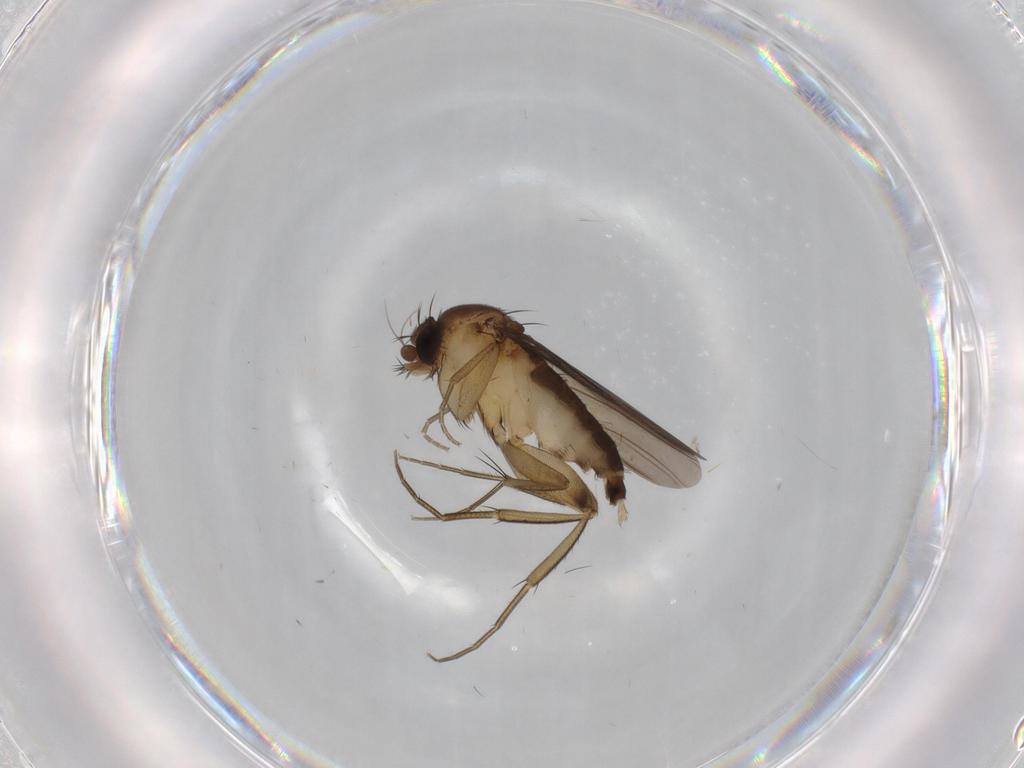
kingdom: Animalia
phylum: Arthropoda
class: Insecta
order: Diptera
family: Phoridae
